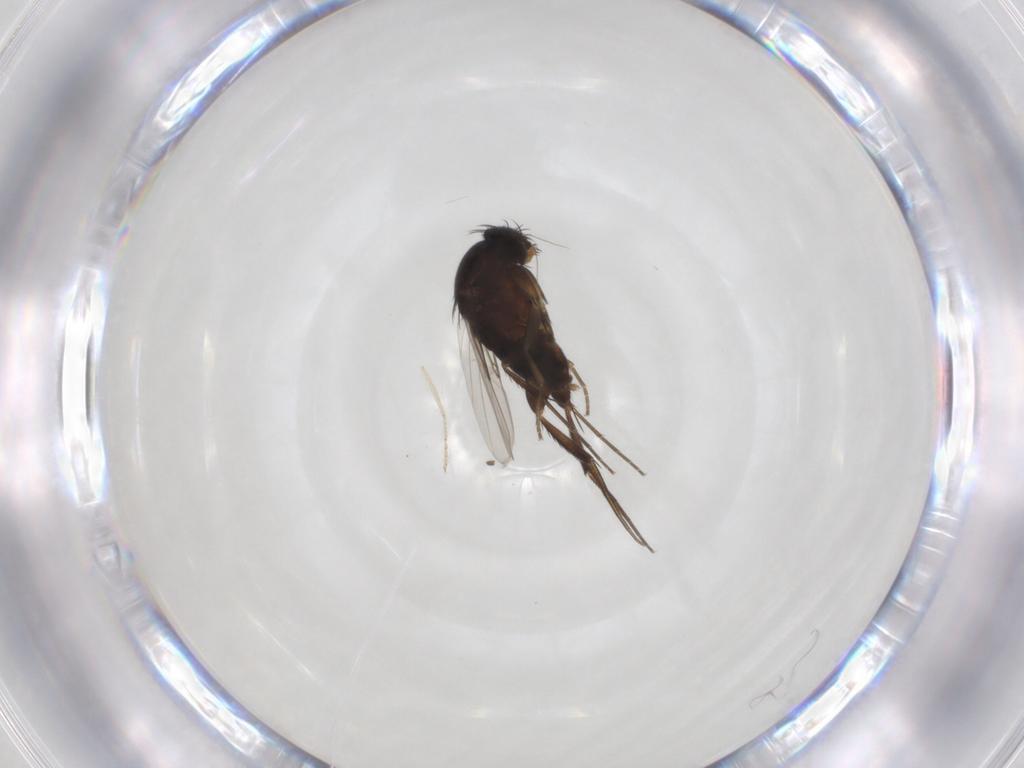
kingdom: Animalia
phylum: Arthropoda
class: Insecta
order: Diptera
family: Phoridae
